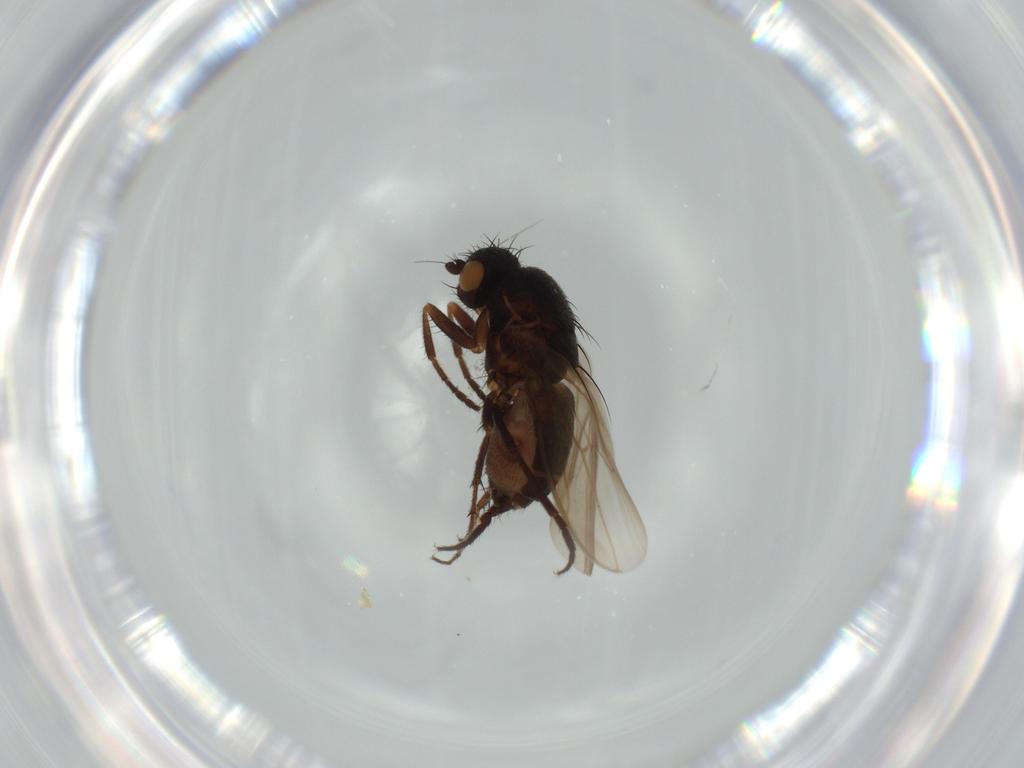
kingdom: Animalia
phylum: Arthropoda
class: Insecta
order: Diptera
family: Sphaeroceridae
